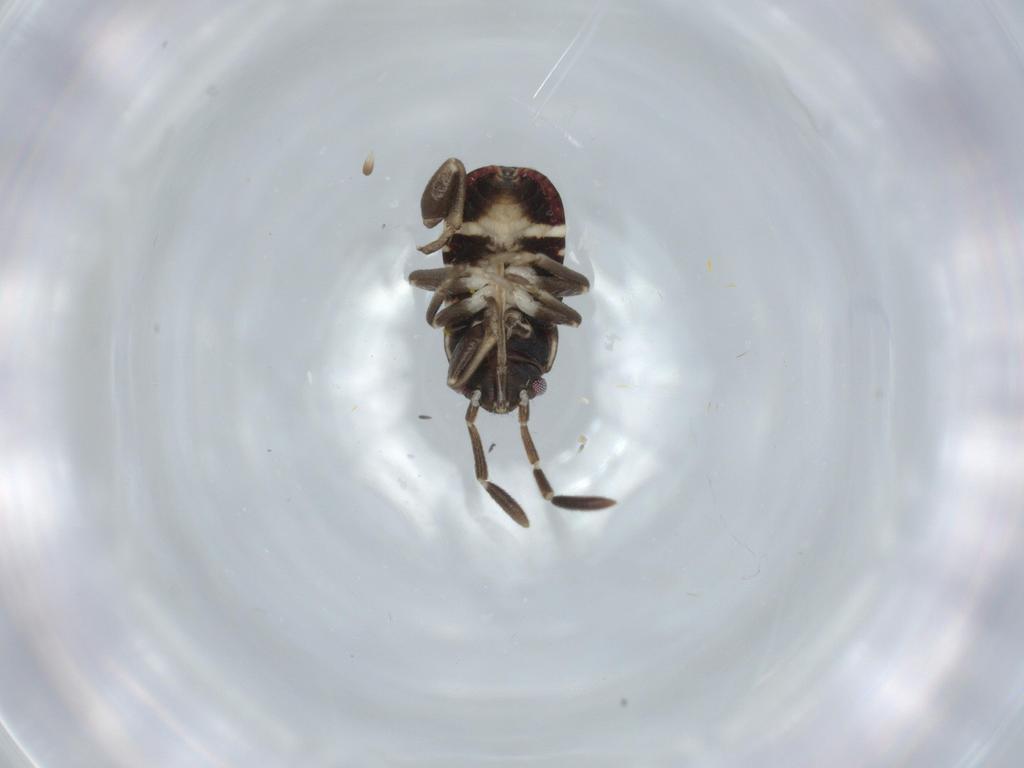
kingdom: Animalia
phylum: Arthropoda
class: Insecta
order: Hemiptera
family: Rhyparochromidae
